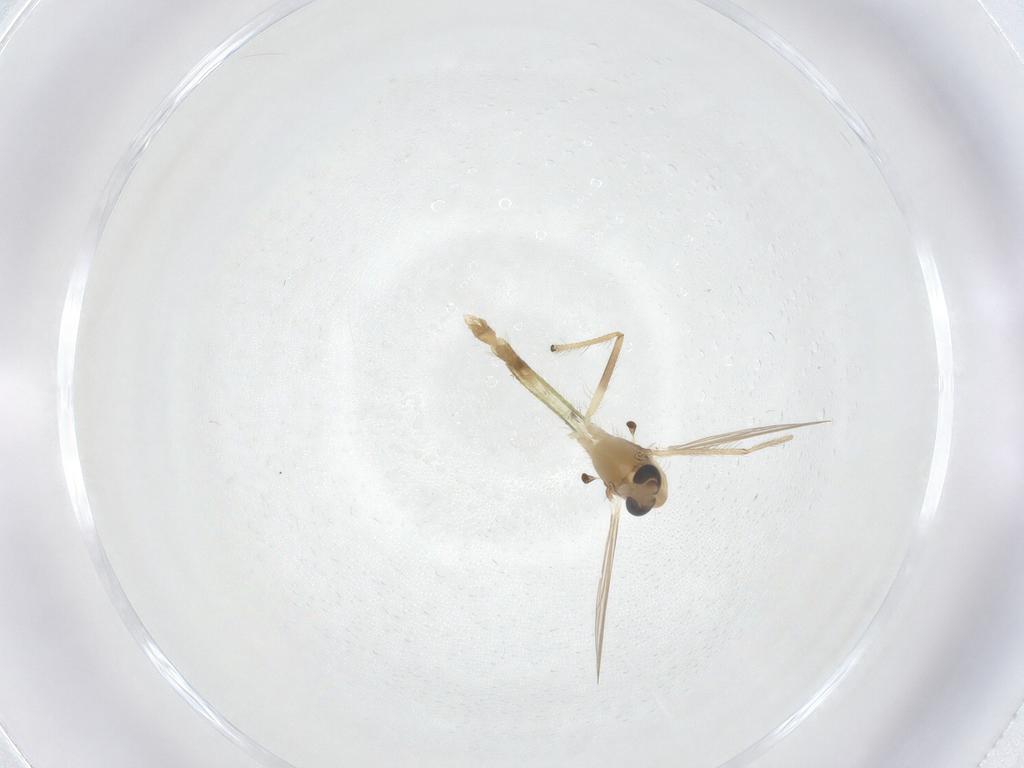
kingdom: Animalia
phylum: Arthropoda
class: Insecta
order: Diptera
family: Chironomidae
